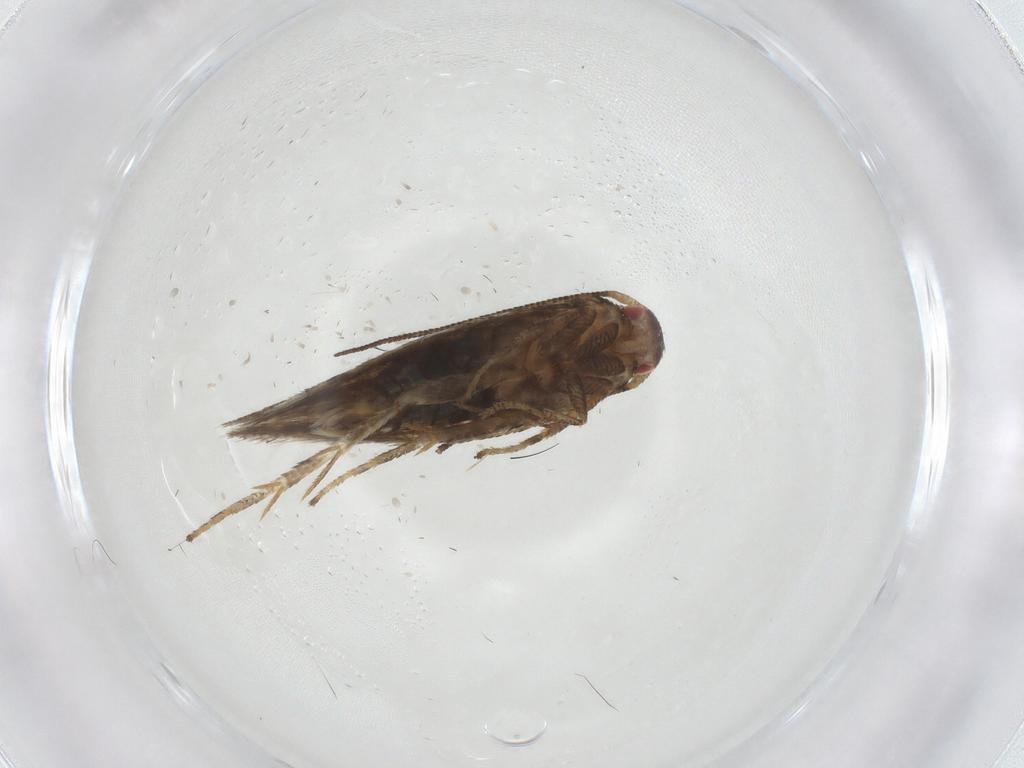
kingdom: Animalia
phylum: Arthropoda
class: Insecta
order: Lepidoptera
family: Momphidae
